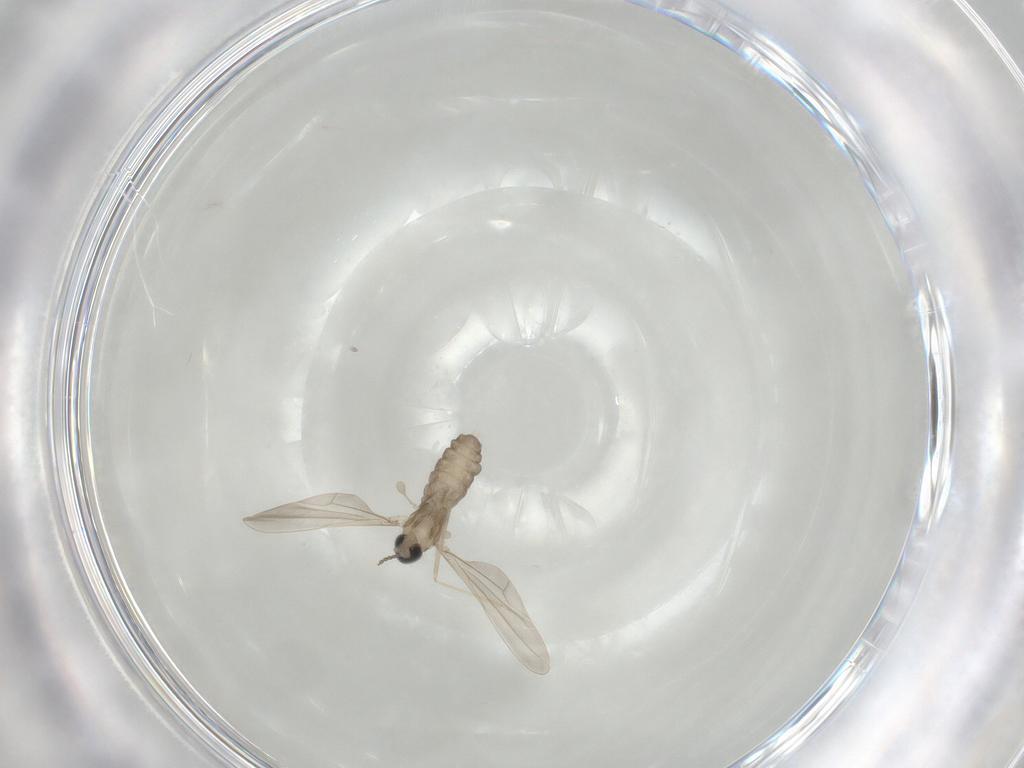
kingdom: Animalia
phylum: Arthropoda
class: Insecta
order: Diptera
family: Cecidomyiidae
